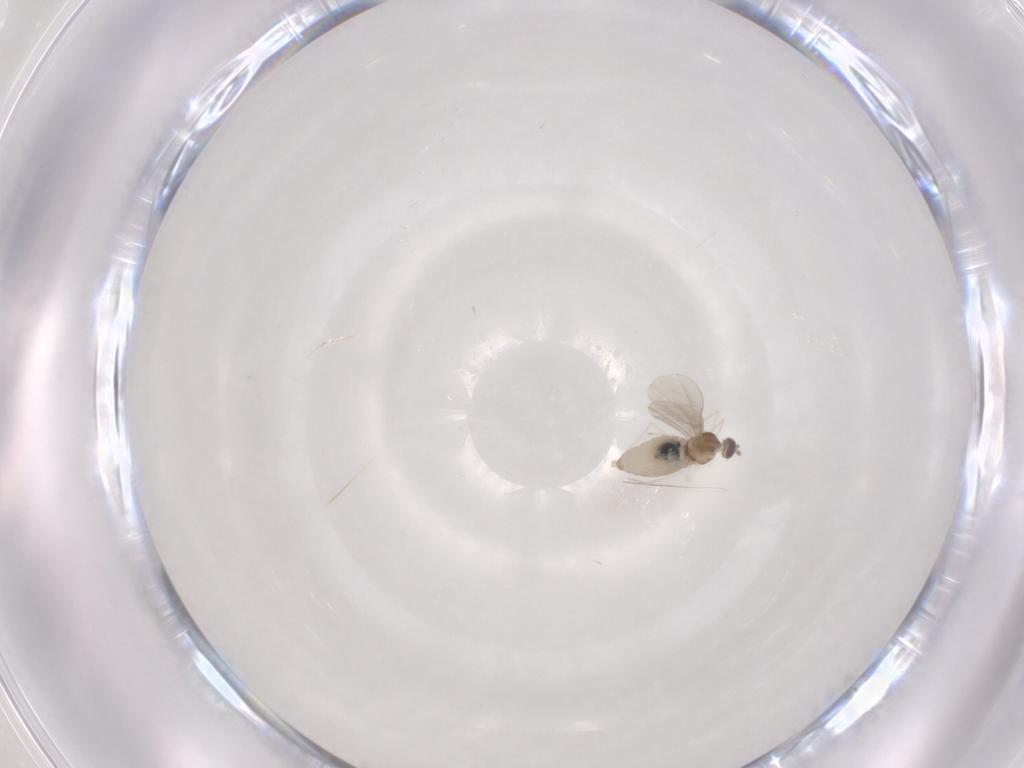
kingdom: Animalia
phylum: Arthropoda
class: Insecta
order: Diptera
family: Cecidomyiidae
